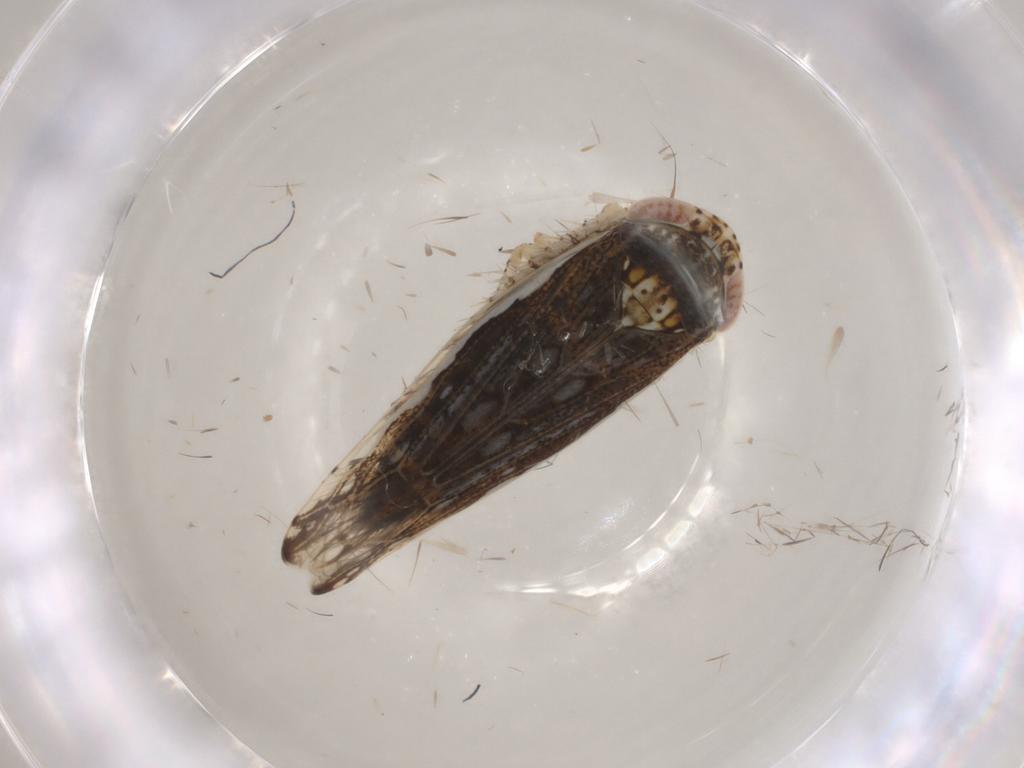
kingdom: Animalia
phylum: Arthropoda
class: Insecta
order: Hemiptera
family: Cicadellidae
